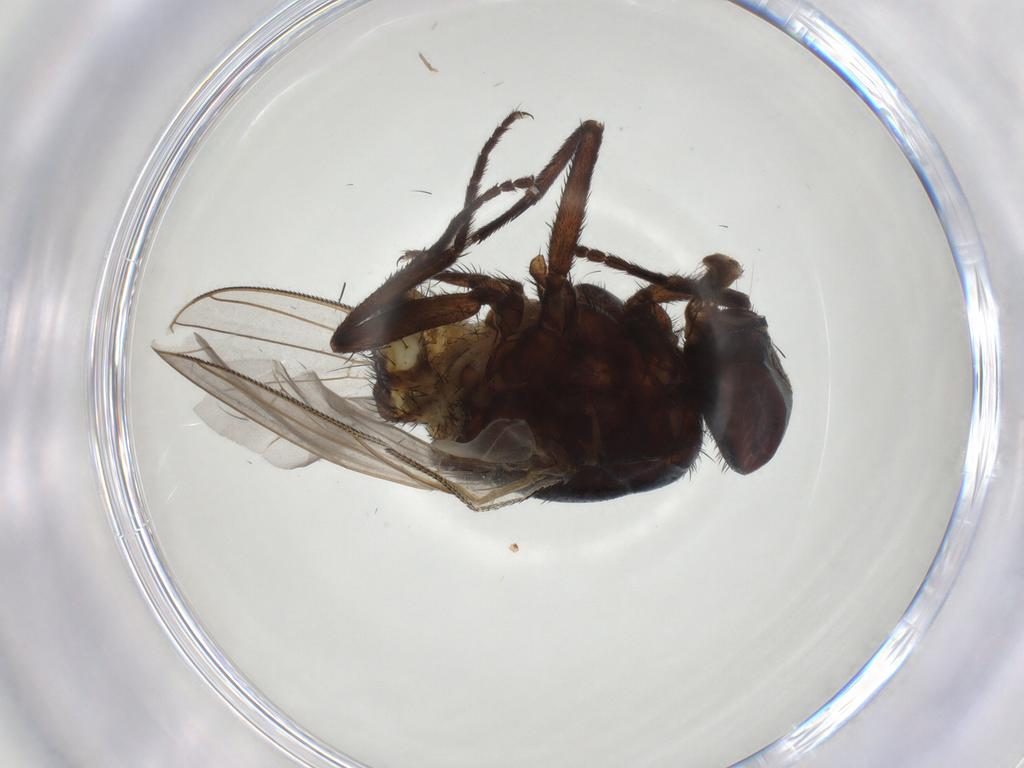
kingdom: Animalia
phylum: Arthropoda
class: Insecta
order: Diptera
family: Muscidae
